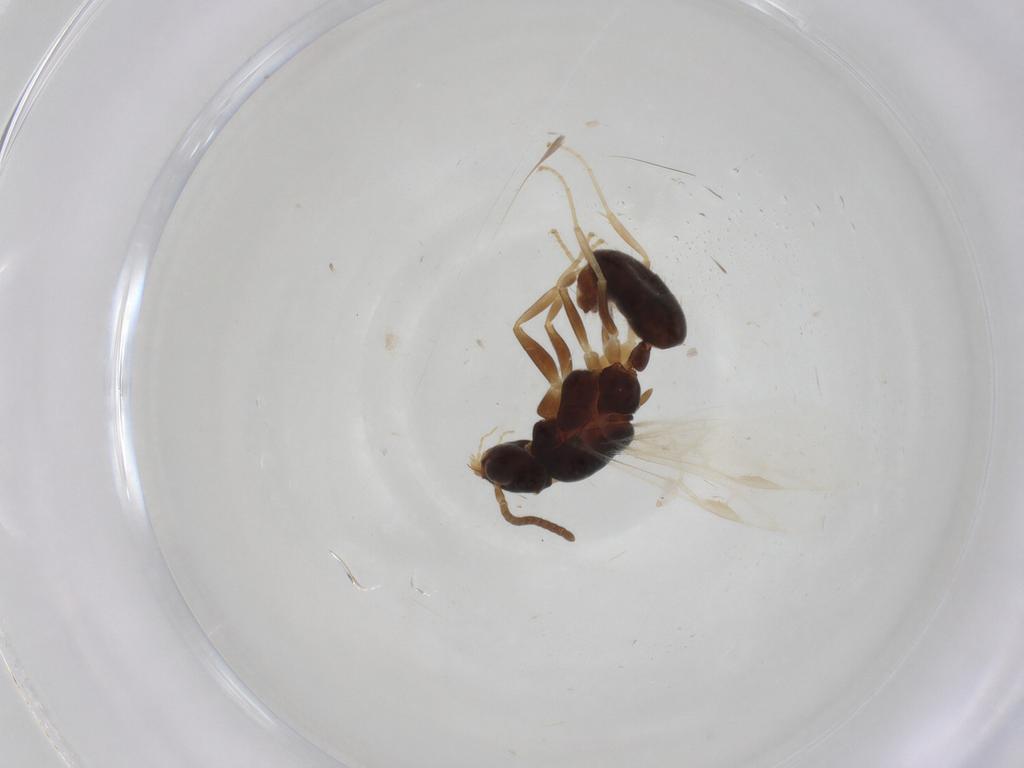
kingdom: Animalia
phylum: Arthropoda
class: Insecta
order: Hymenoptera
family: Formicidae
